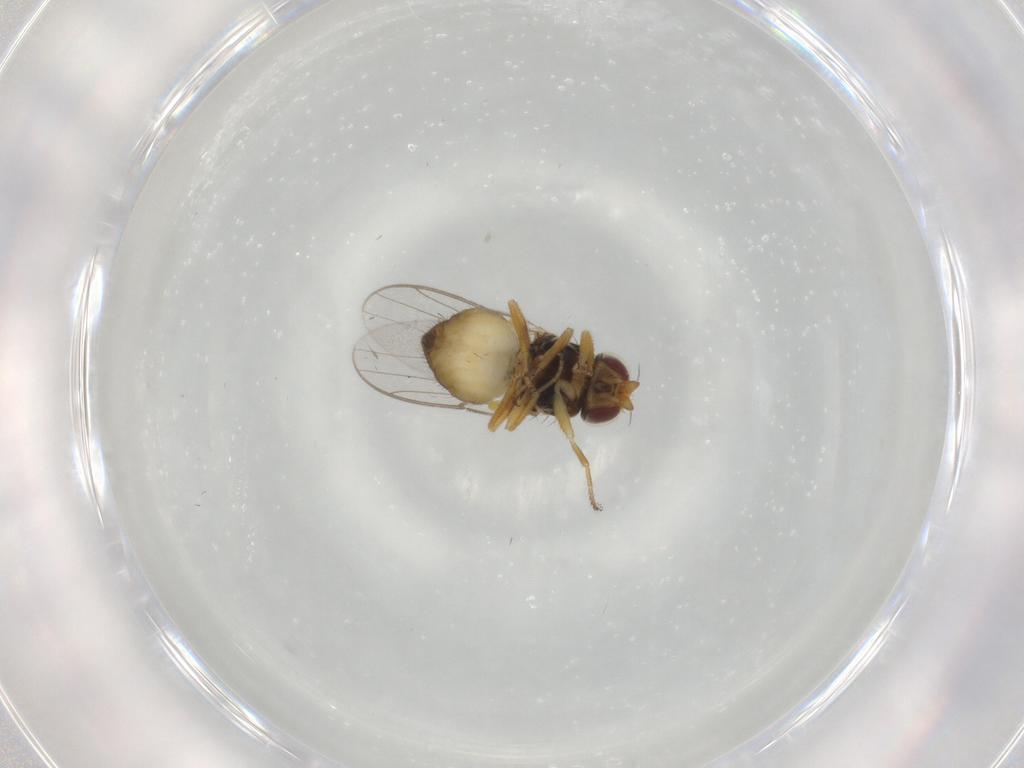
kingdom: Animalia
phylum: Arthropoda
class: Insecta
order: Diptera
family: Chloropidae
